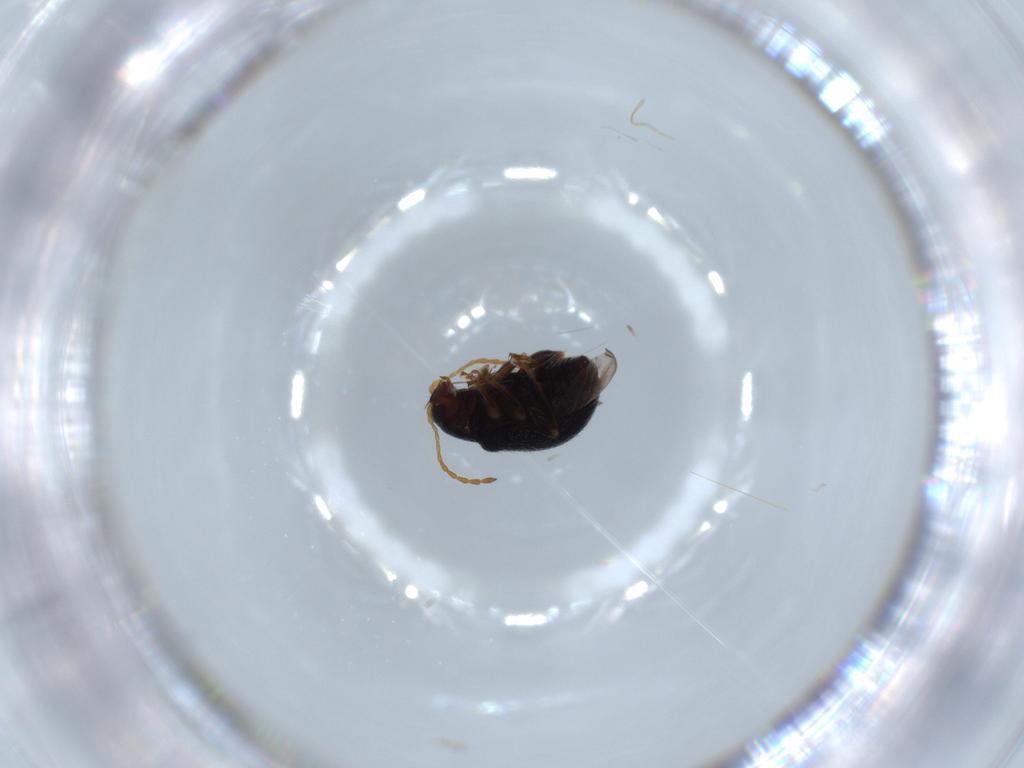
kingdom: Animalia
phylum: Arthropoda
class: Insecta
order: Coleoptera
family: Chrysomelidae
